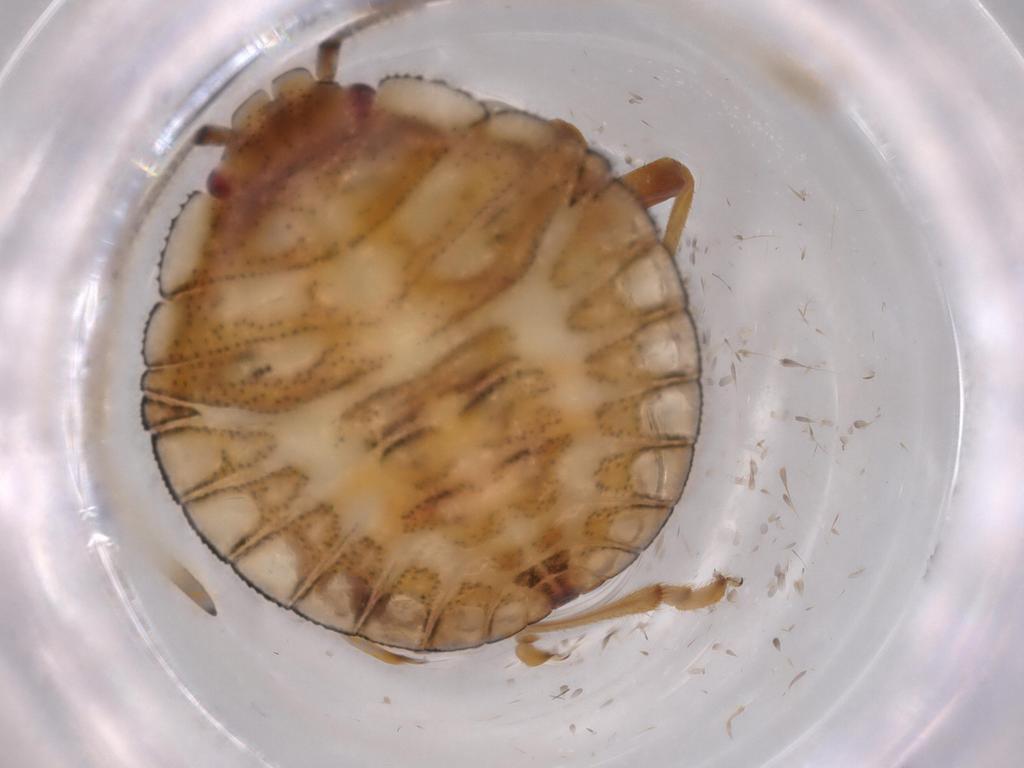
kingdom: Animalia
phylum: Arthropoda
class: Insecta
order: Hemiptera
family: Pentatomidae
